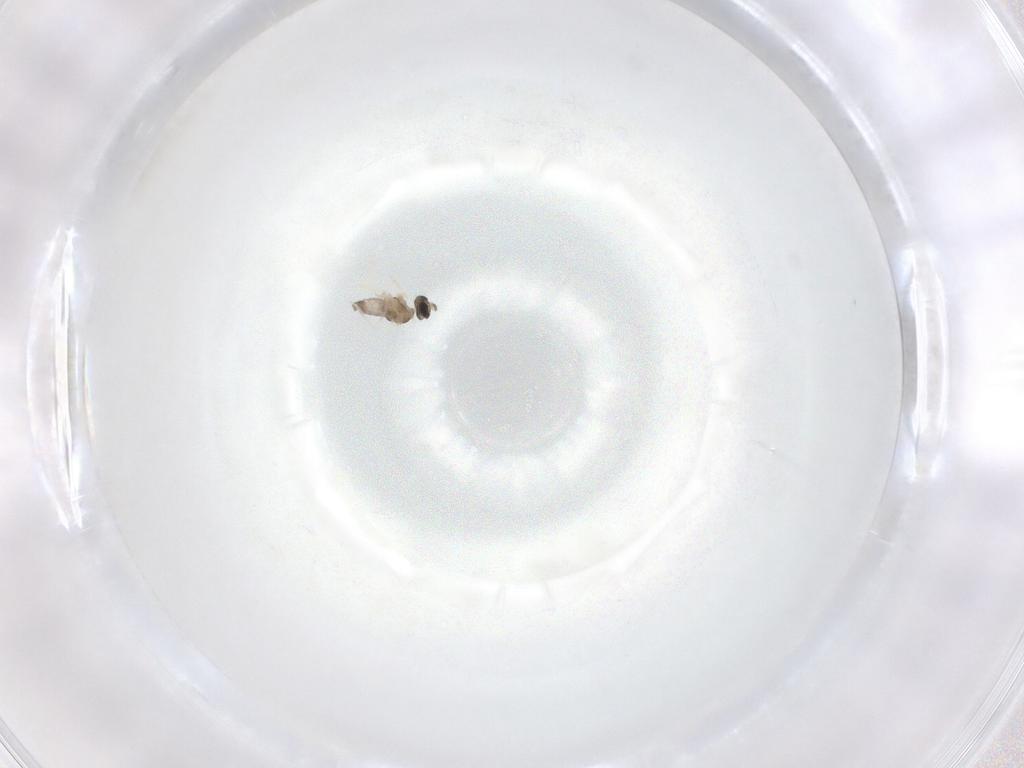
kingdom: Animalia
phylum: Arthropoda
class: Insecta
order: Diptera
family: Cecidomyiidae
